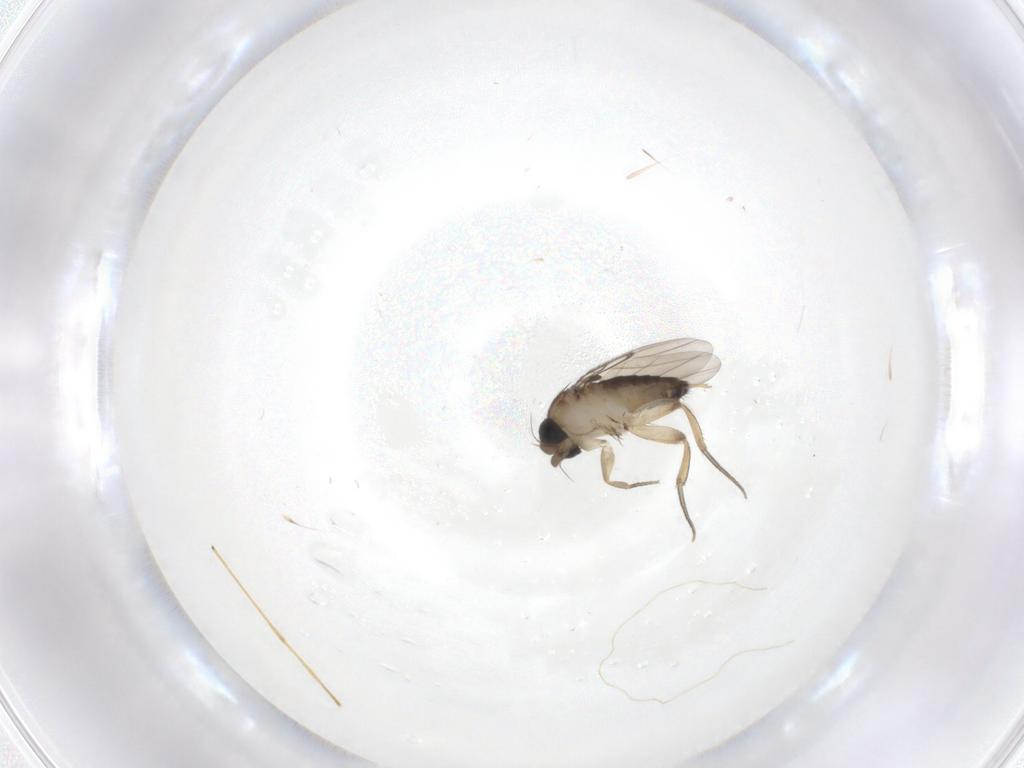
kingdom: Animalia
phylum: Arthropoda
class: Insecta
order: Diptera
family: Phoridae
